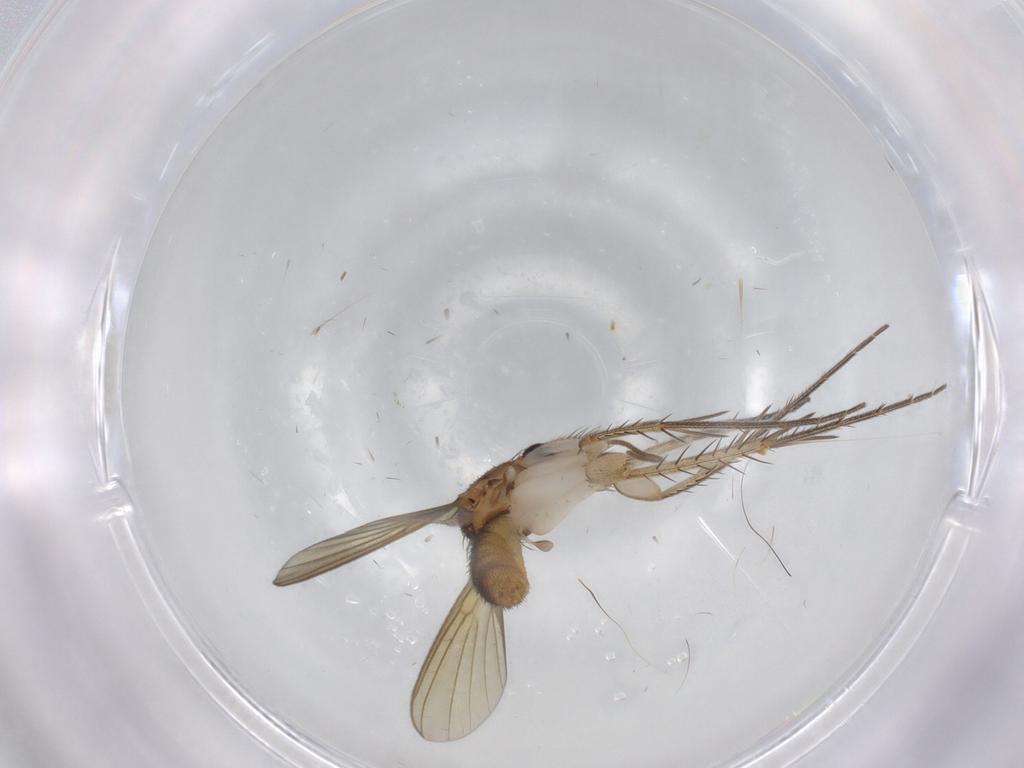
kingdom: Animalia
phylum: Arthropoda
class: Insecta
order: Diptera
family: Mycetophilidae
